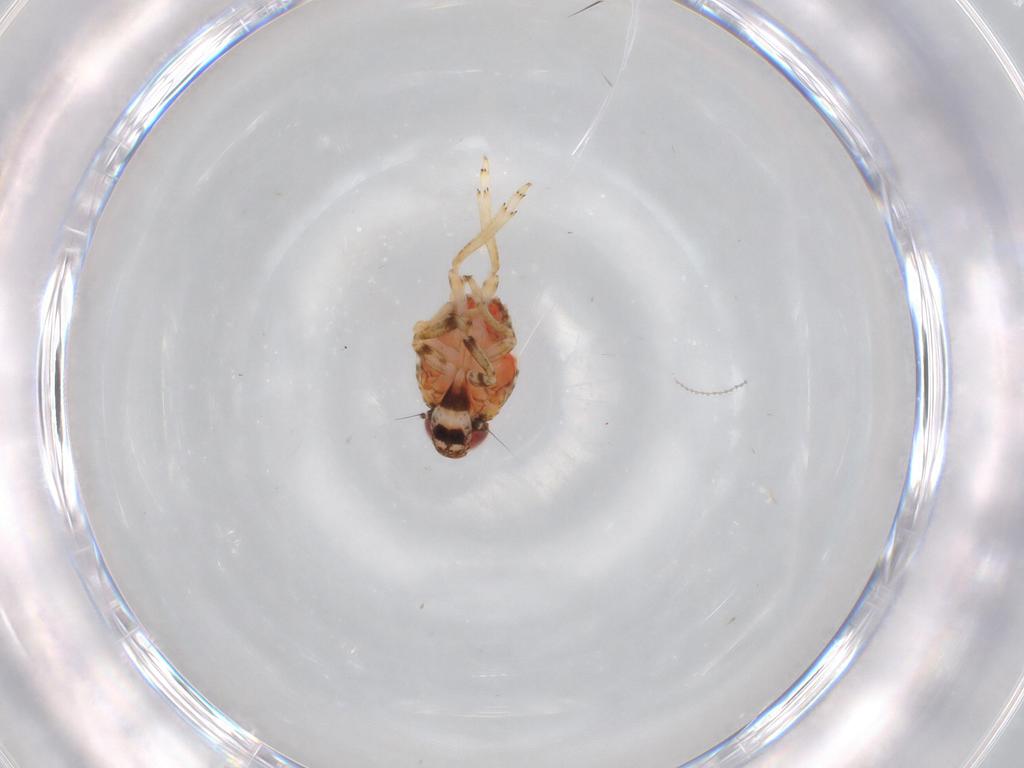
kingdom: Animalia
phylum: Arthropoda
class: Insecta
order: Hemiptera
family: Issidae
